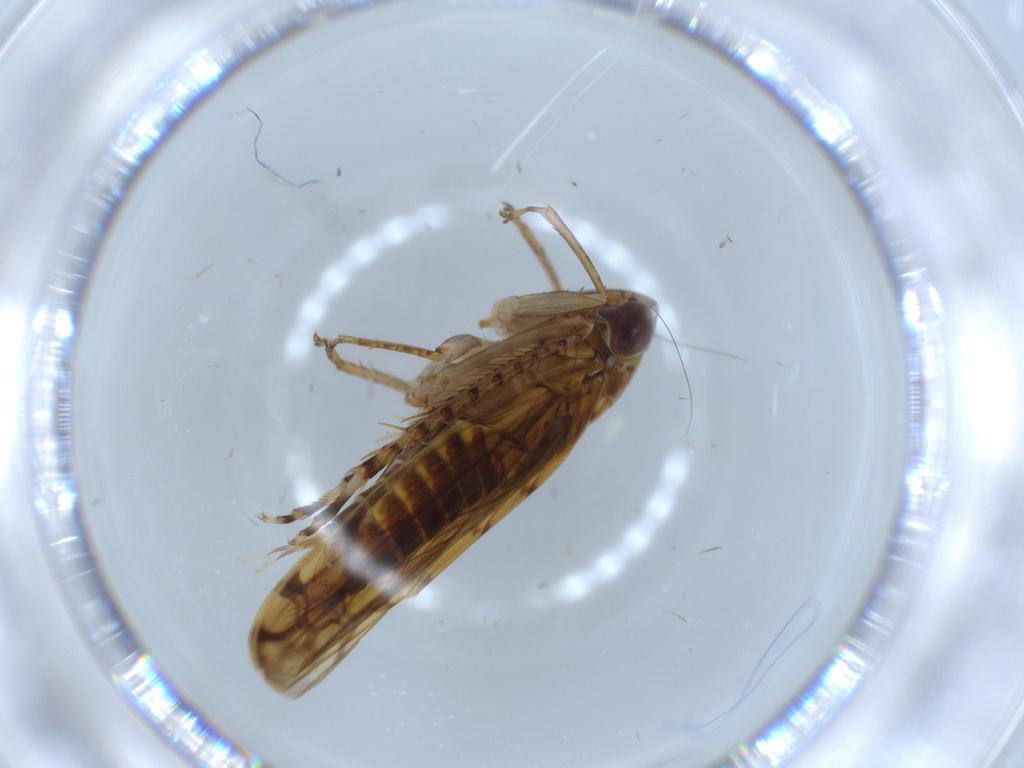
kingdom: Animalia
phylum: Arthropoda
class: Insecta
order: Hemiptera
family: Cicadellidae
